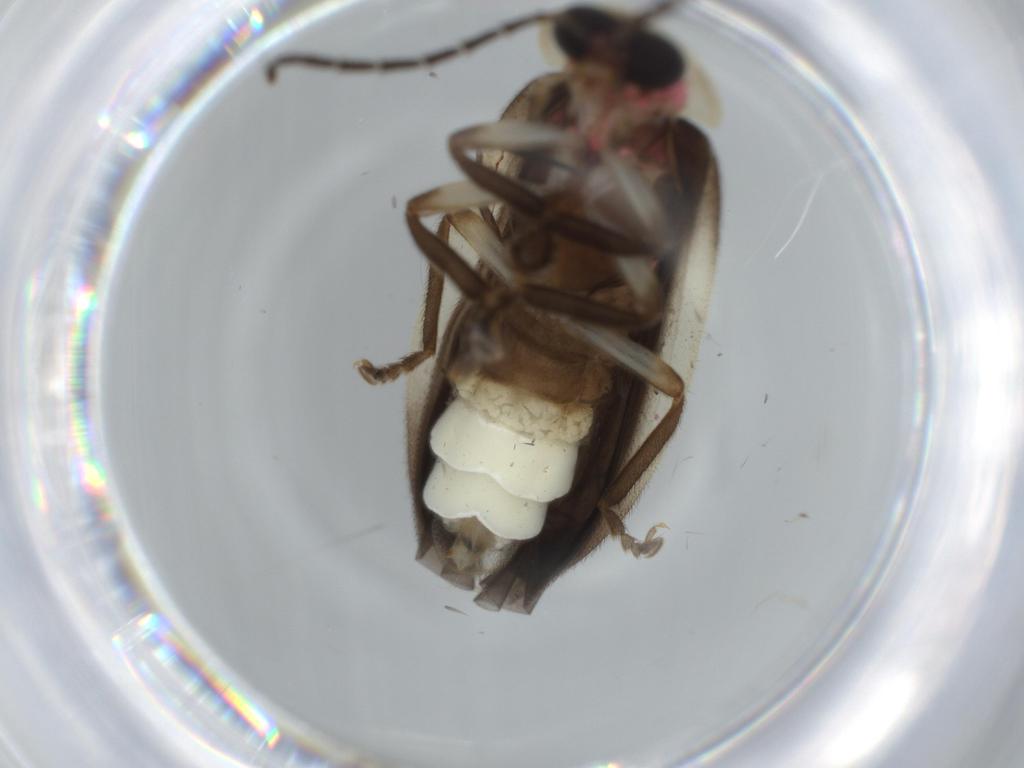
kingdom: Animalia
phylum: Arthropoda
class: Insecta
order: Coleoptera
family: Lampyridae
